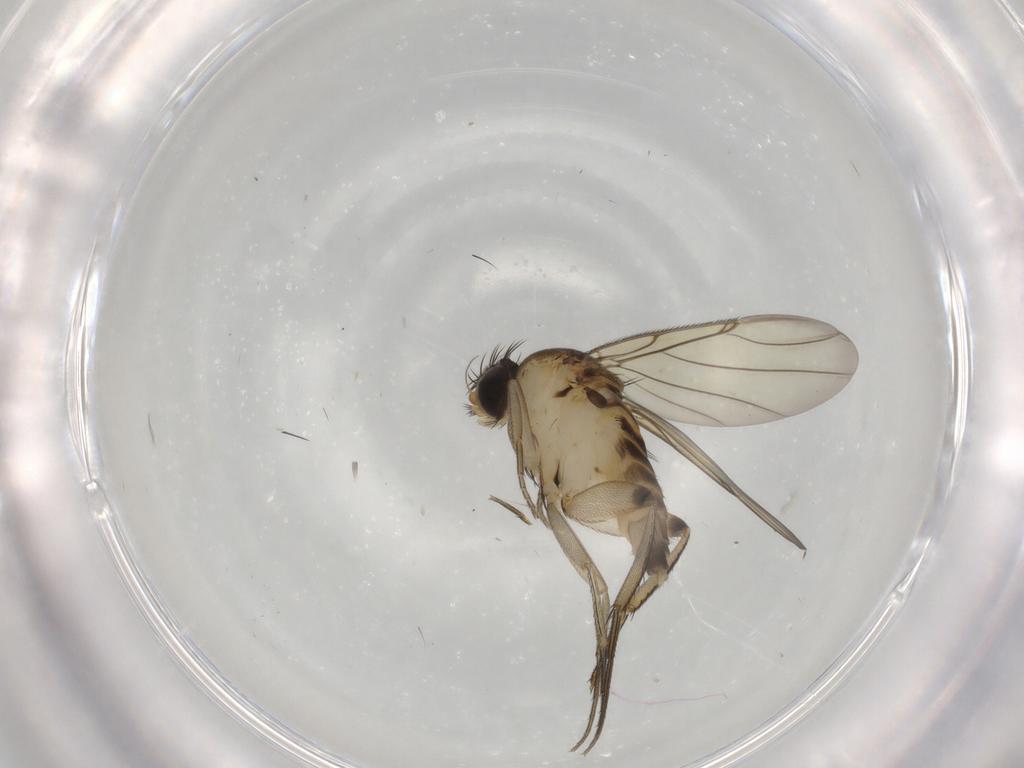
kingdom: Animalia
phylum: Arthropoda
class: Insecta
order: Diptera
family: Phoridae
